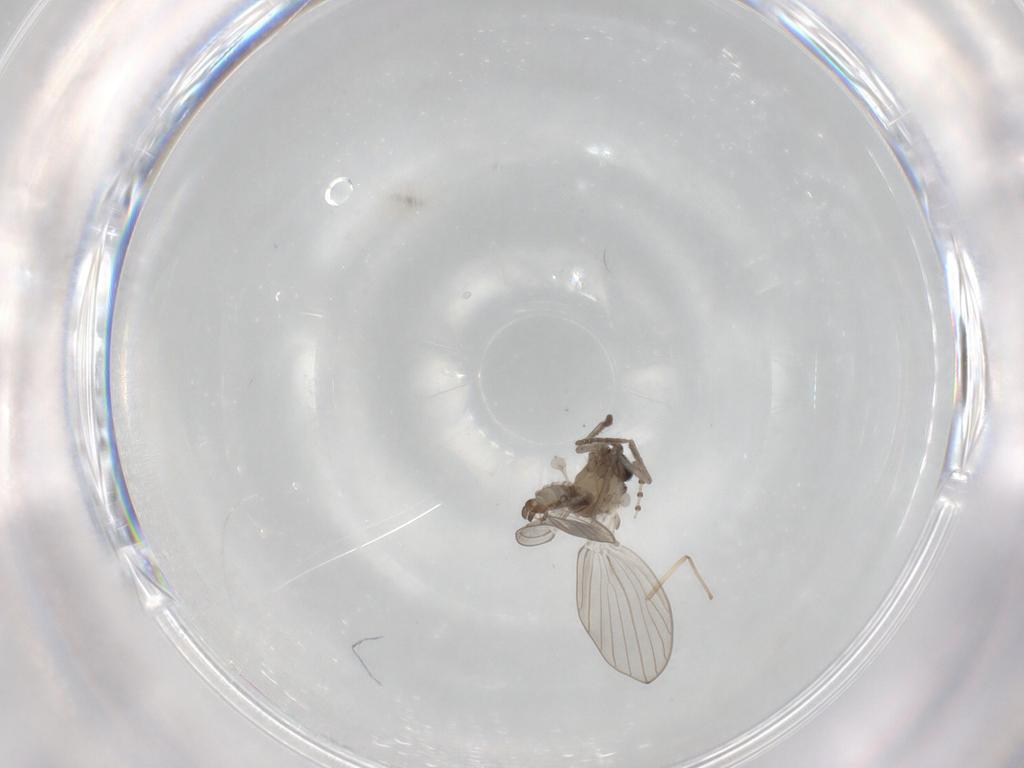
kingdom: Animalia
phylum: Arthropoda
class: Insecta
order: Diptera
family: Psychodidae
